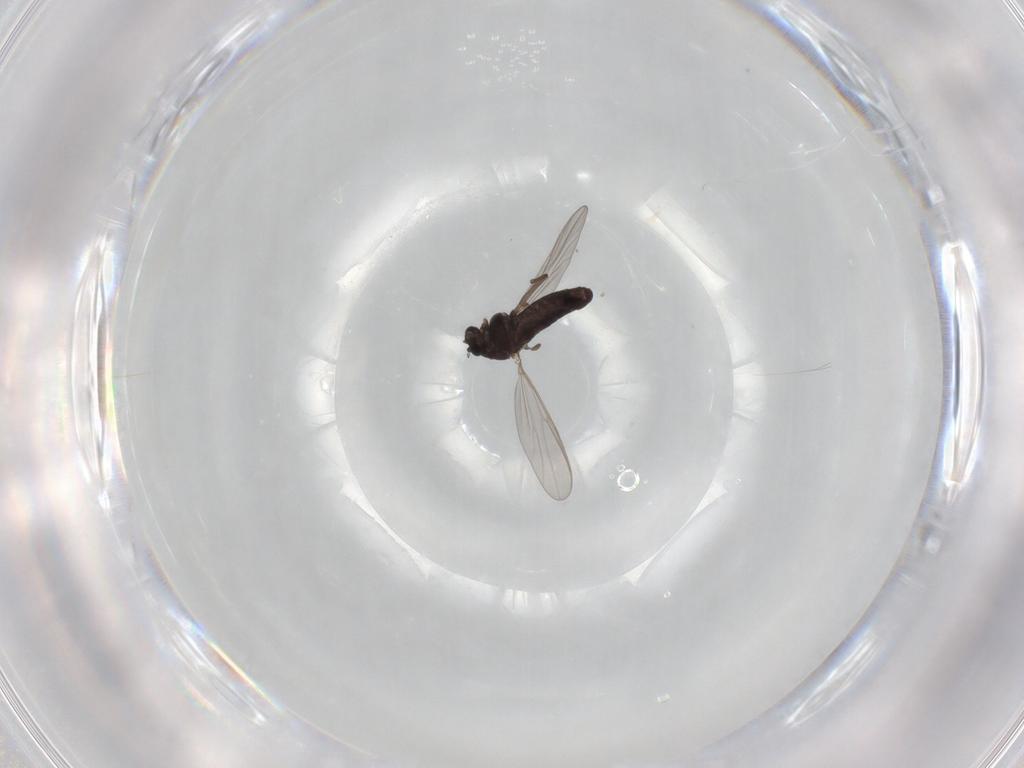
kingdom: Animalia
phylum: Arthropoda
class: Insecta
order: Diptera
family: Chironomidae
